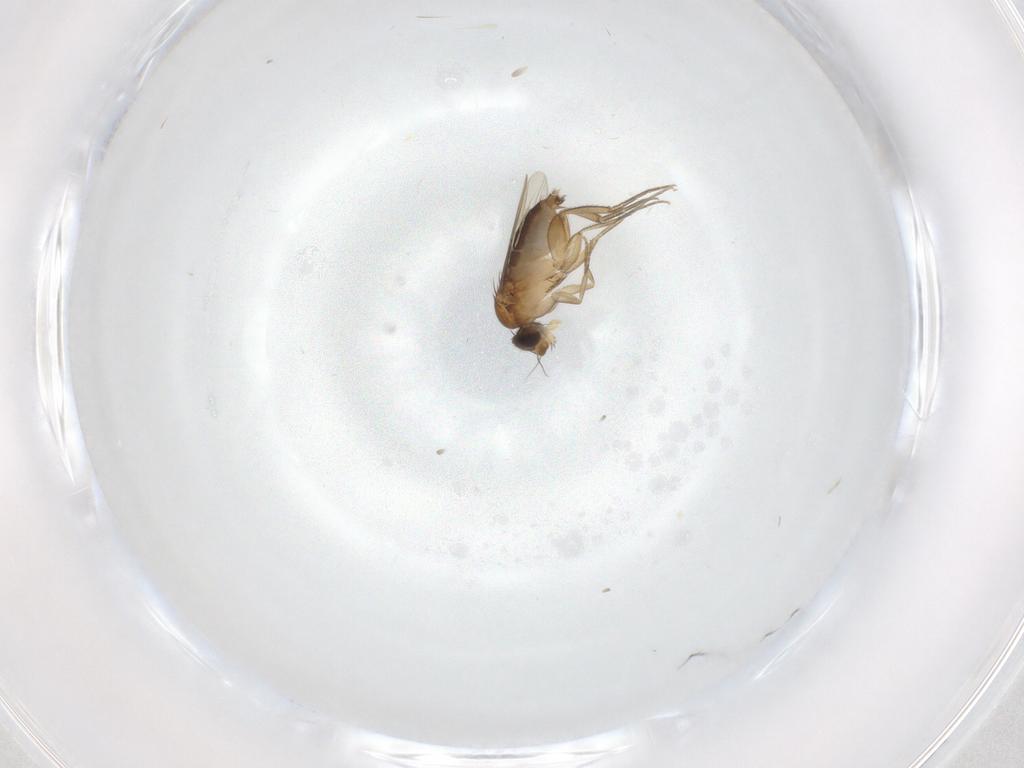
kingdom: Animalia
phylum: Arthropoda
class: Insecta
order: Diptera
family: Phoridae
